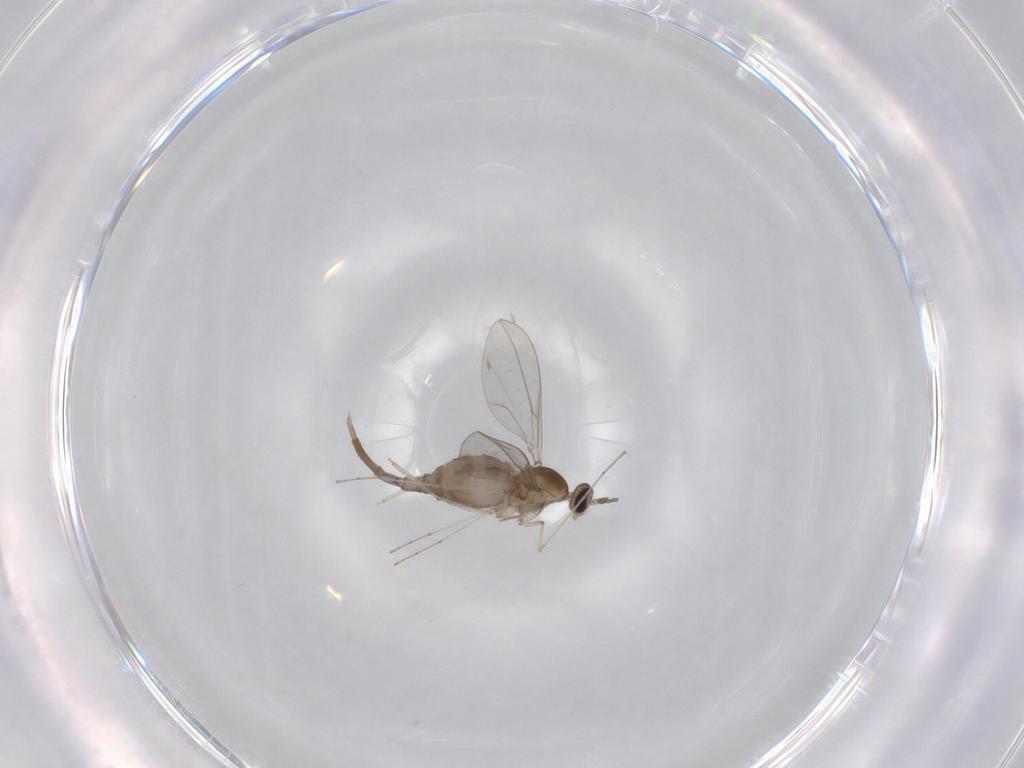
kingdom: Animalia
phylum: Arthropoda
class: Insecta
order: Diptera
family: Cecidomyiidae
